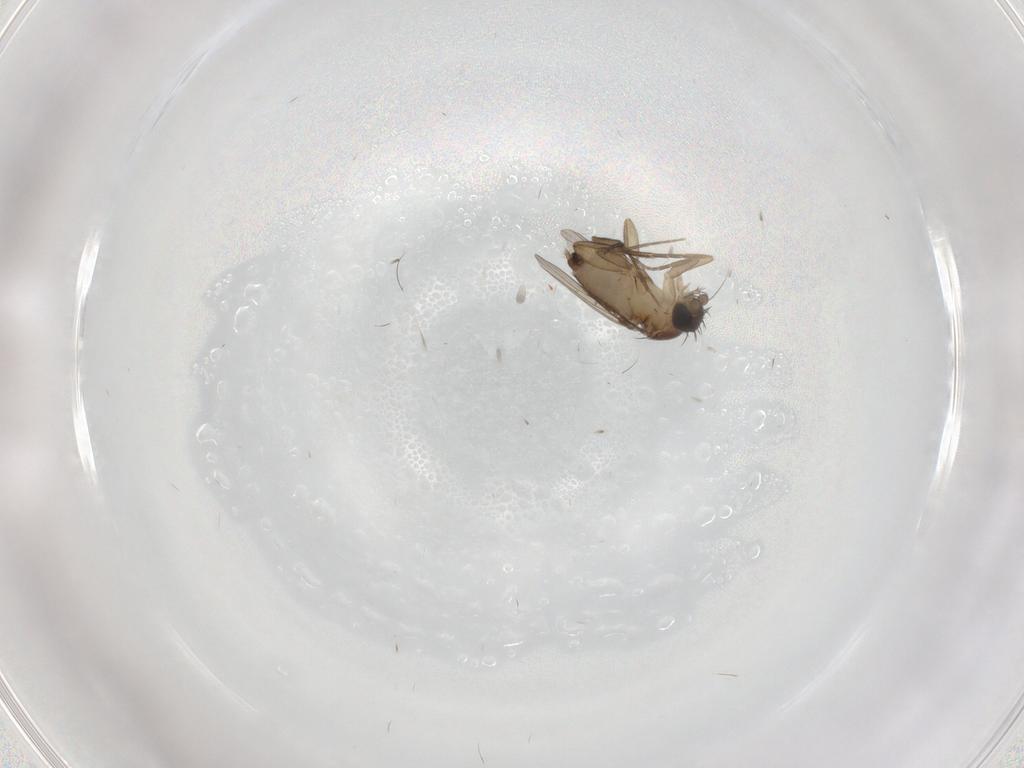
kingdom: Animalia
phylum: Arthropoda
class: Insecta
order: Diptera
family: Phoridae
